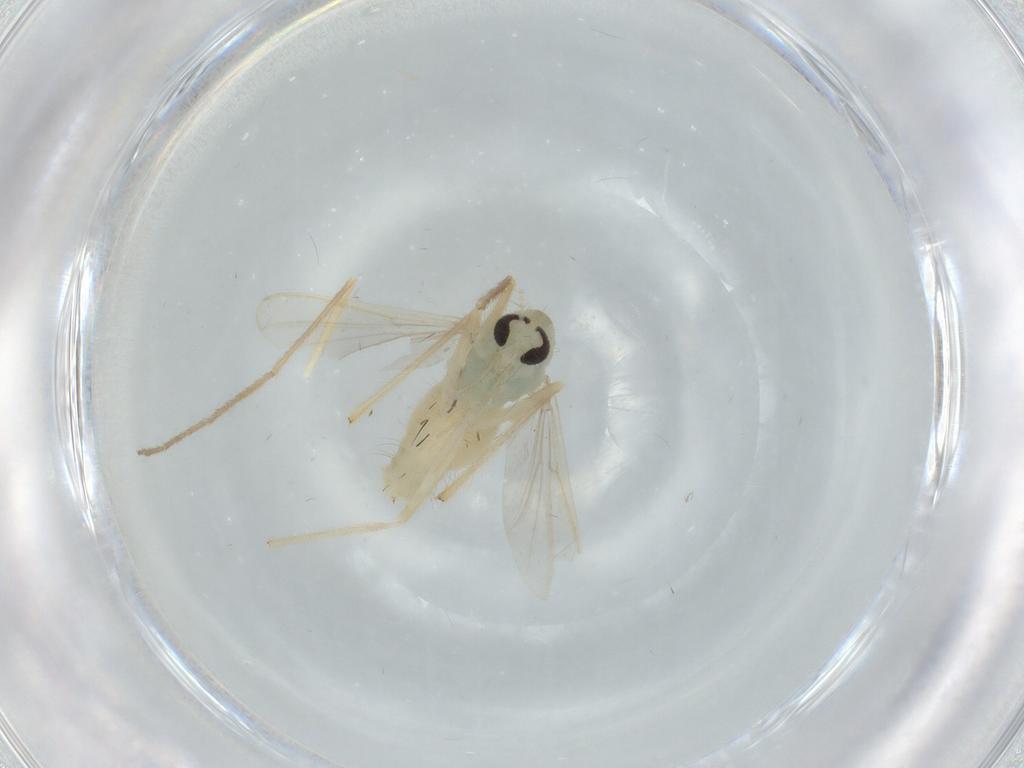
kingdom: Animalia
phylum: Arthropoda
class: Insecta
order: Diptera
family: Chironomidae
